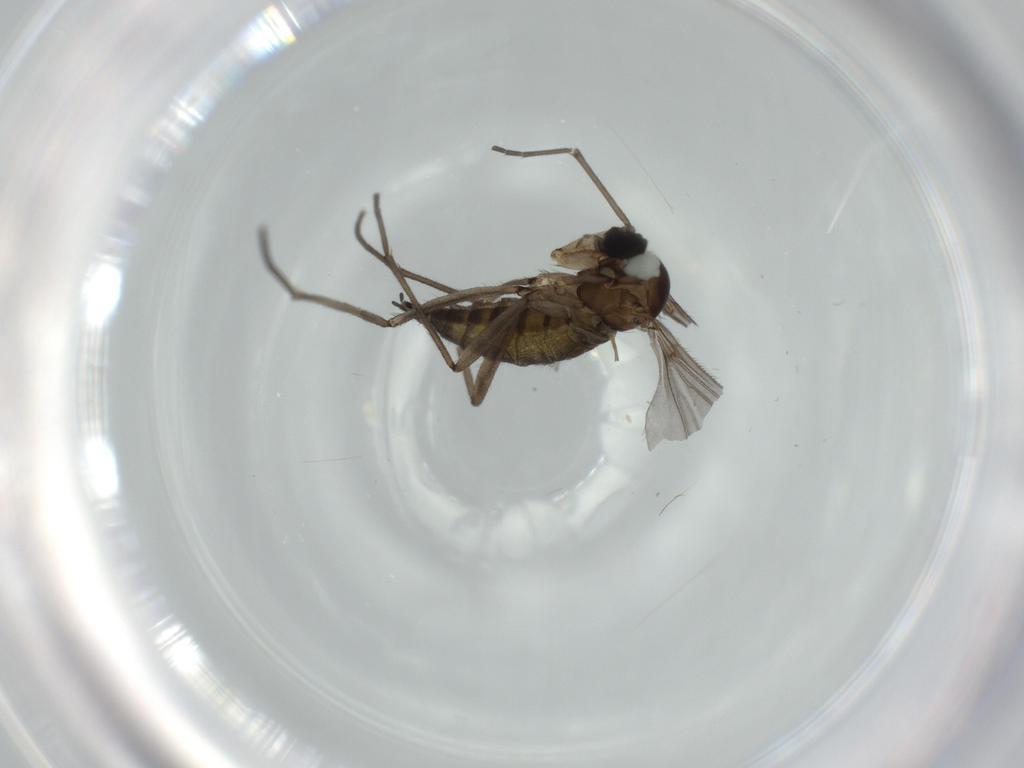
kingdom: Animalia
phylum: Arthropoda
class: Insecta
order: Diptera
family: Sciaridae
